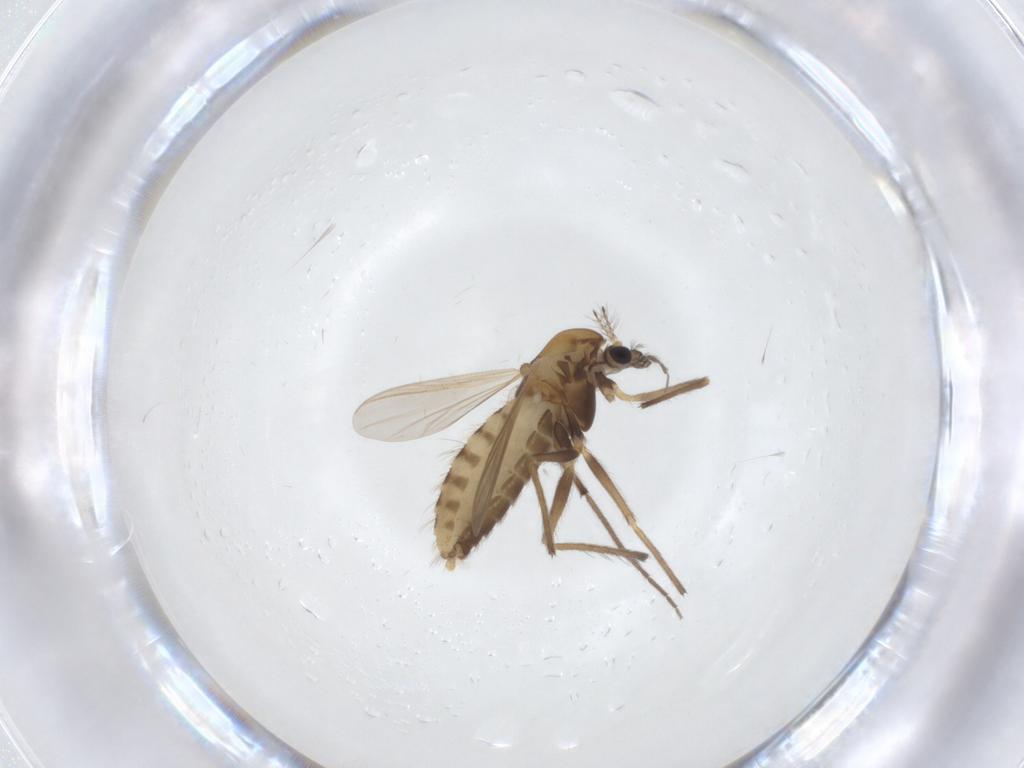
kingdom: Animalia
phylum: Arthropoda
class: Insecta
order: Diptera
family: Chironomidae
